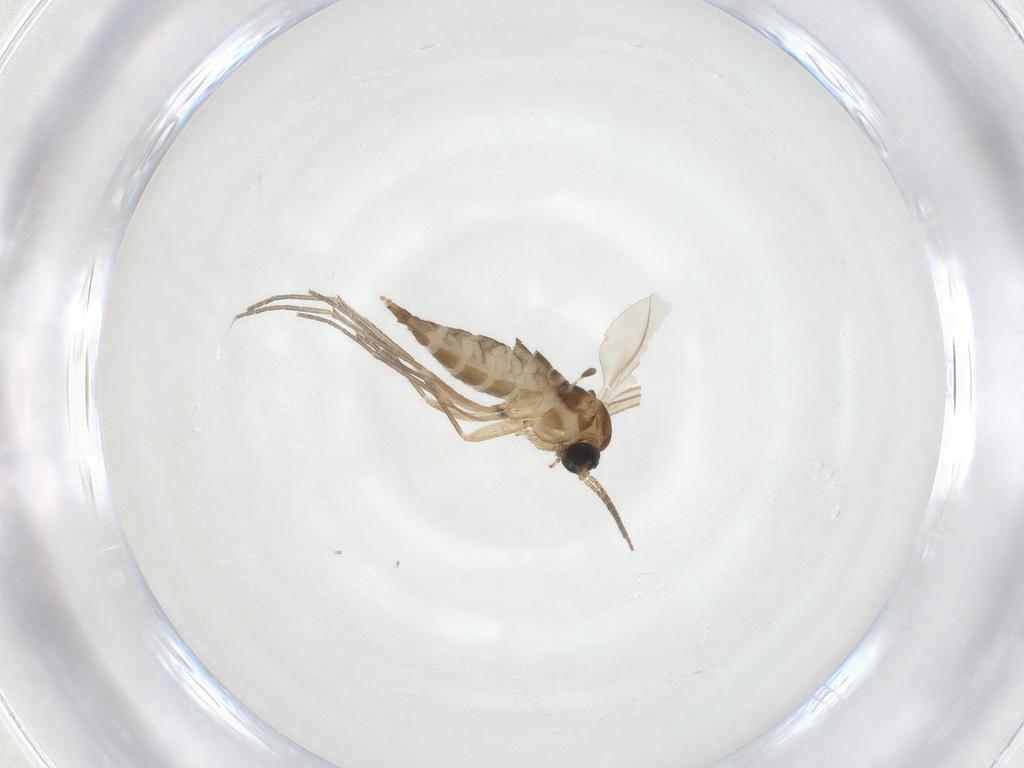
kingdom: Animalia
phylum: Arthropoda
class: Insecta
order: Diptera
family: Sciaridae
